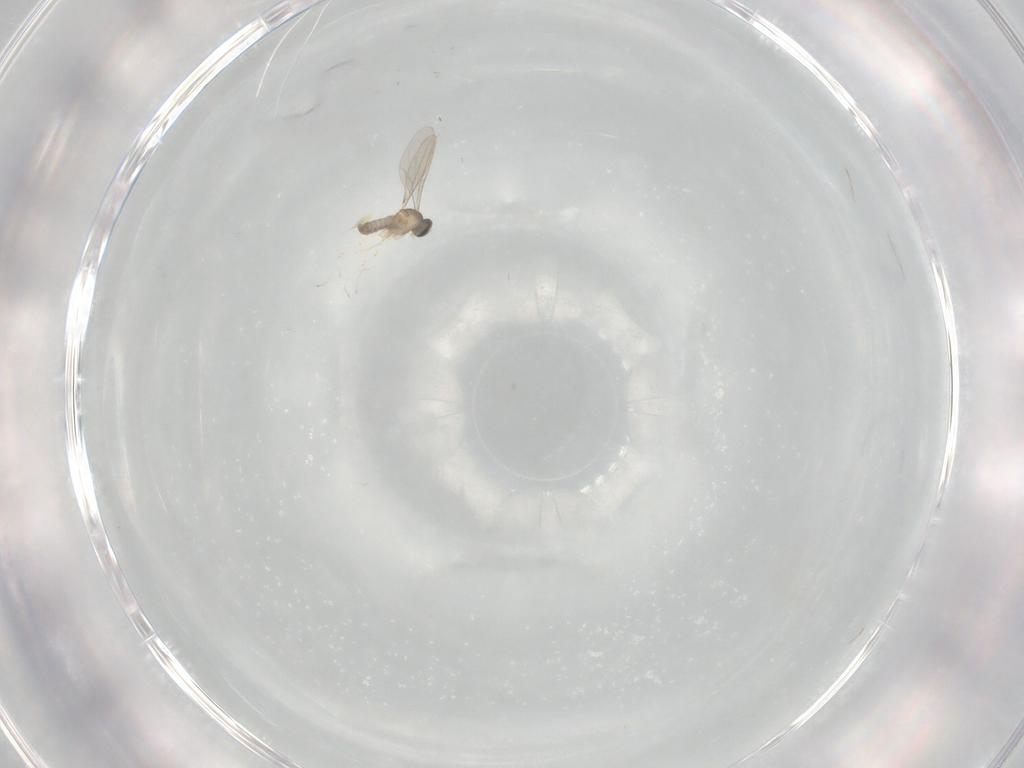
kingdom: Animalia
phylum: Arthropoda
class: Insecta
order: Diptera
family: Cecidomyiidae
